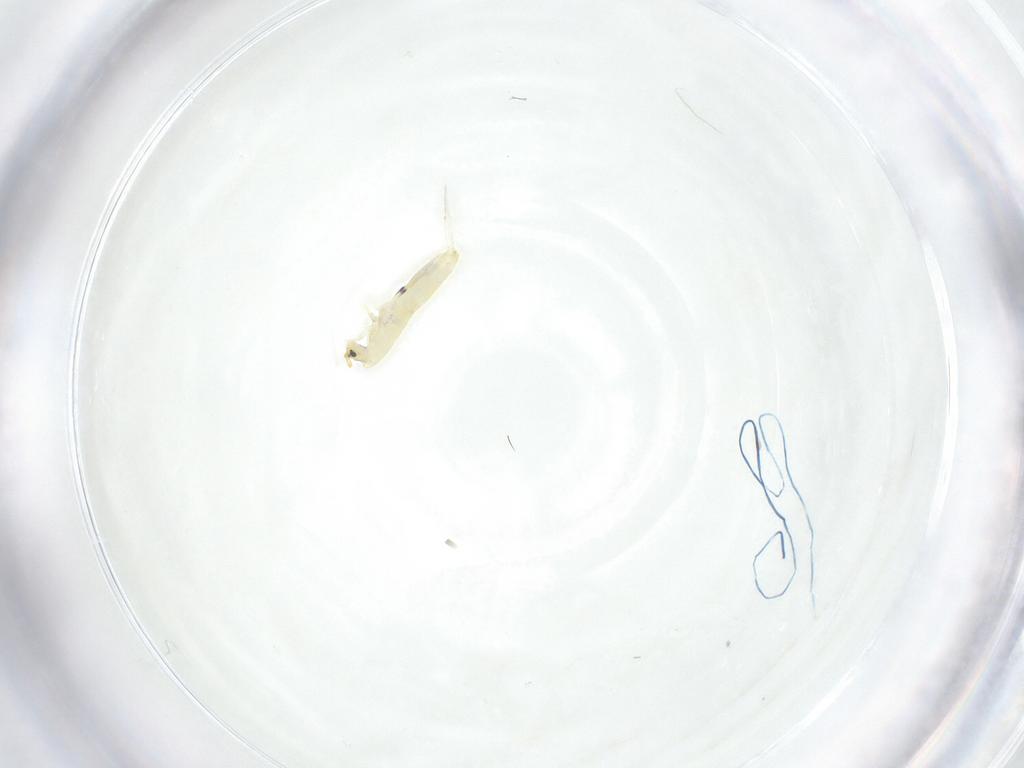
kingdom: Animalia
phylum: Arthropoda
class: Collembola
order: Entomobryomorpha
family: Entomobryidae
